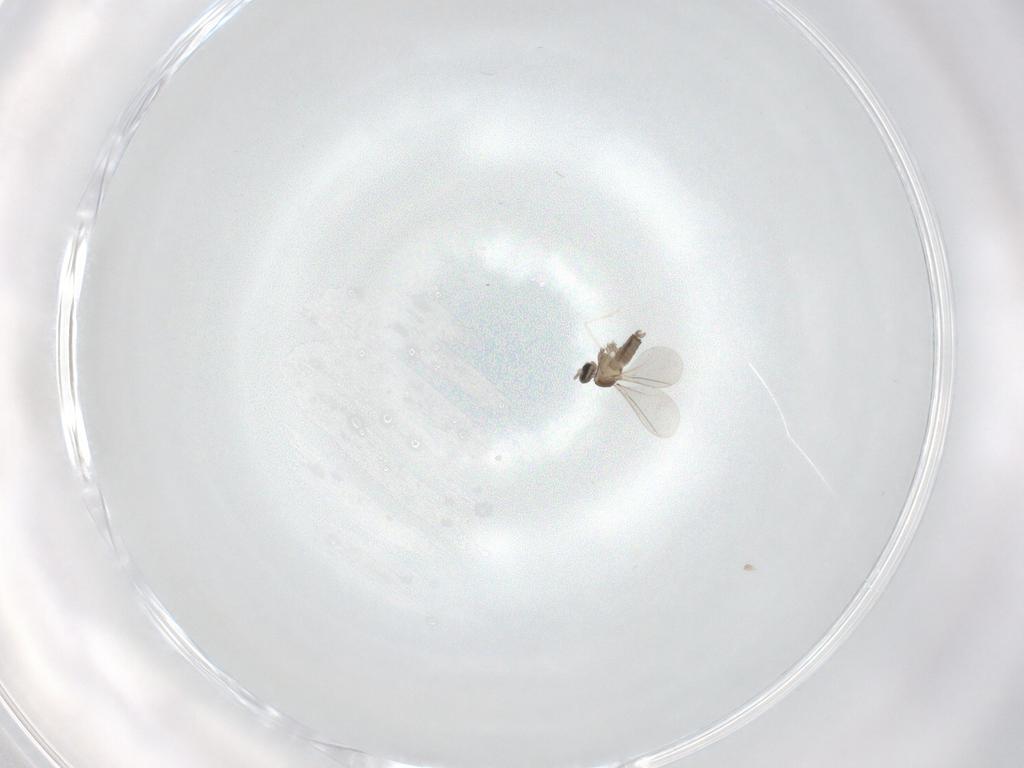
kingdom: Animalia
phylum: Arthropoda
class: Insecta
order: Diptera
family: Cecidomyiidae
